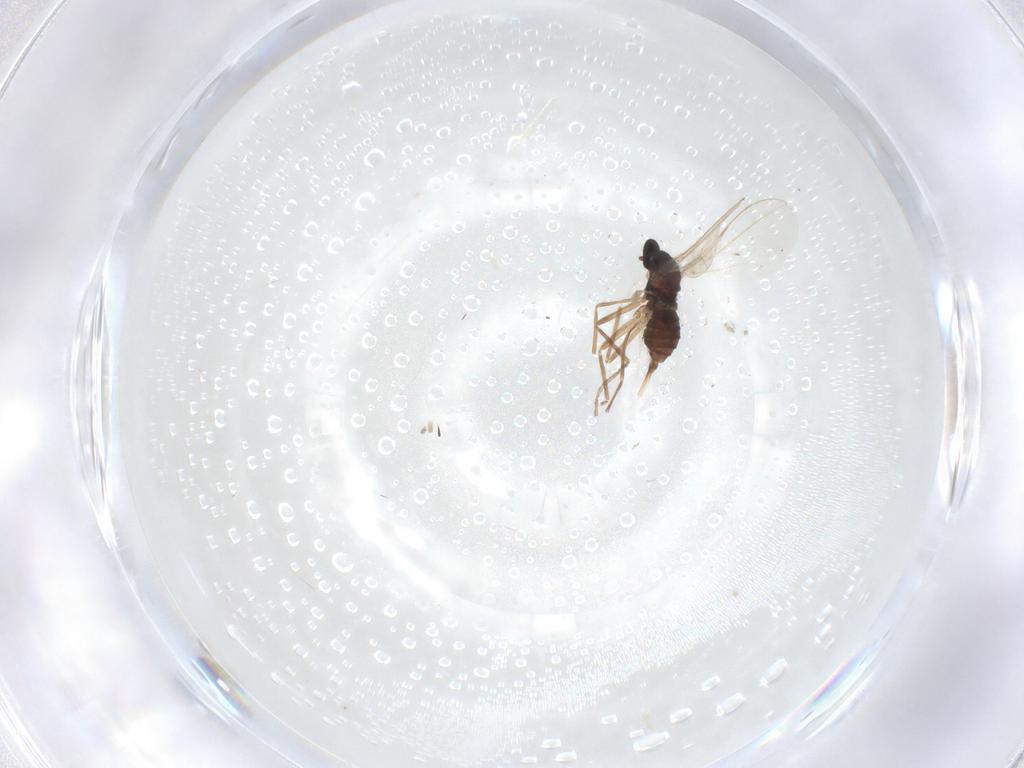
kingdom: Animalia
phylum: Arthropoda
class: Insecta
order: Diptera
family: Cecidomyiidae
